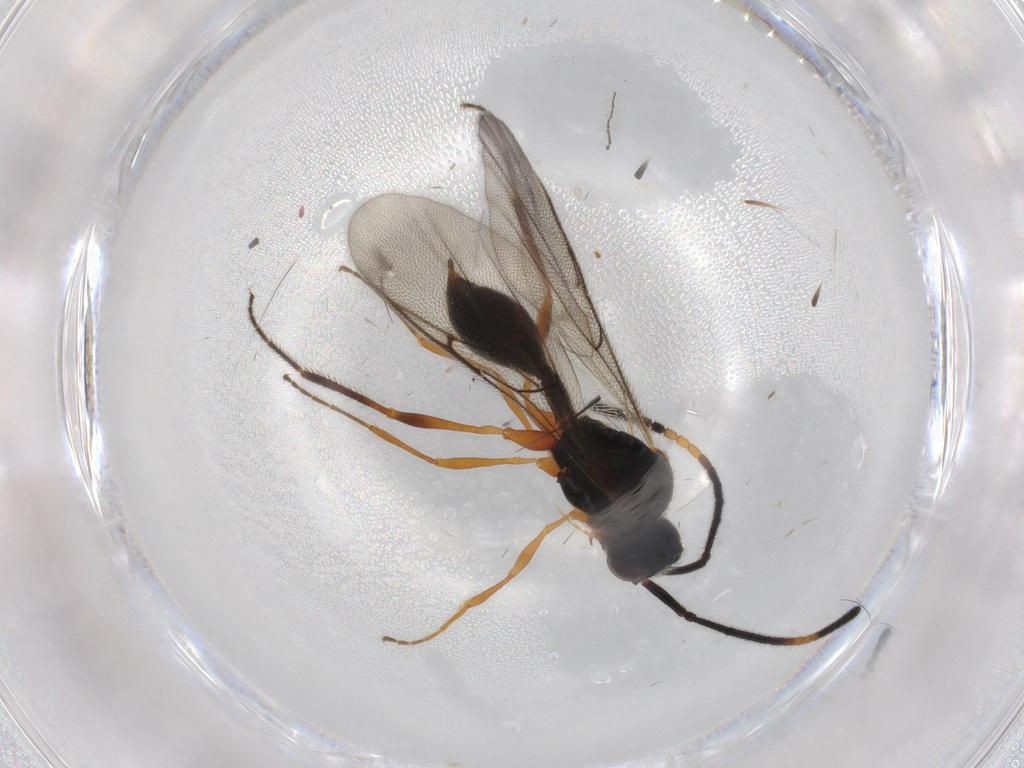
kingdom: Animalia
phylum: Arthropoda
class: Insecta
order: Hymenoptera
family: Diapriidae
